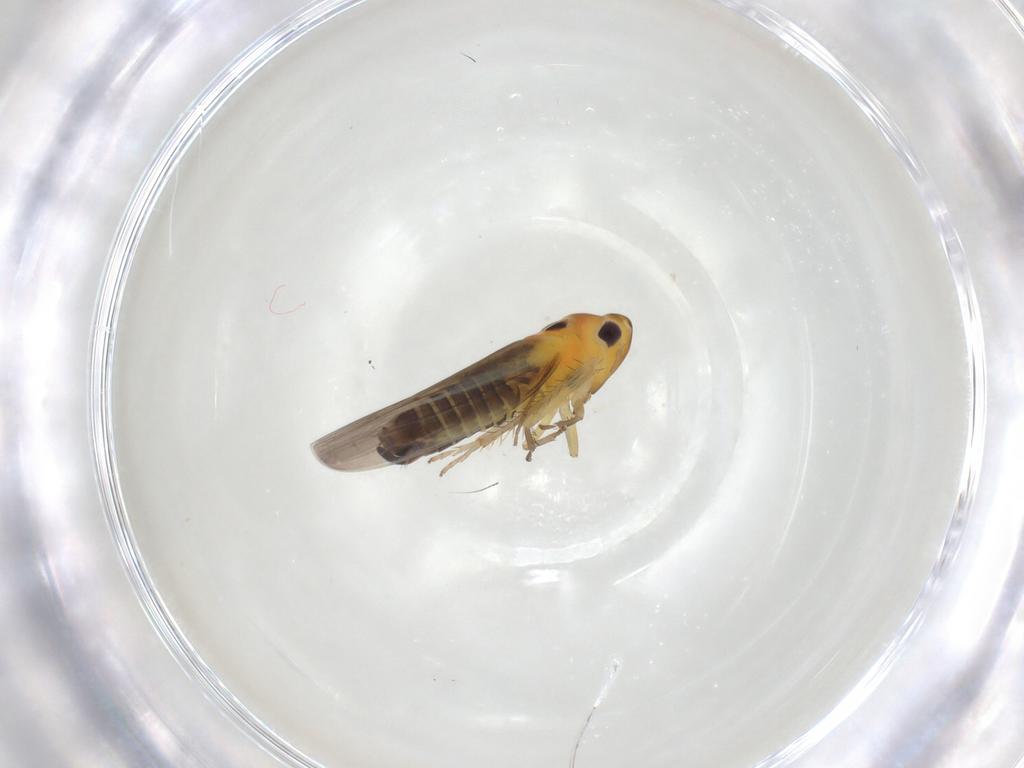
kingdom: Animalia
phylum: Arthropoda
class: Insecta
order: Hemiptera
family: Cicadellidae
